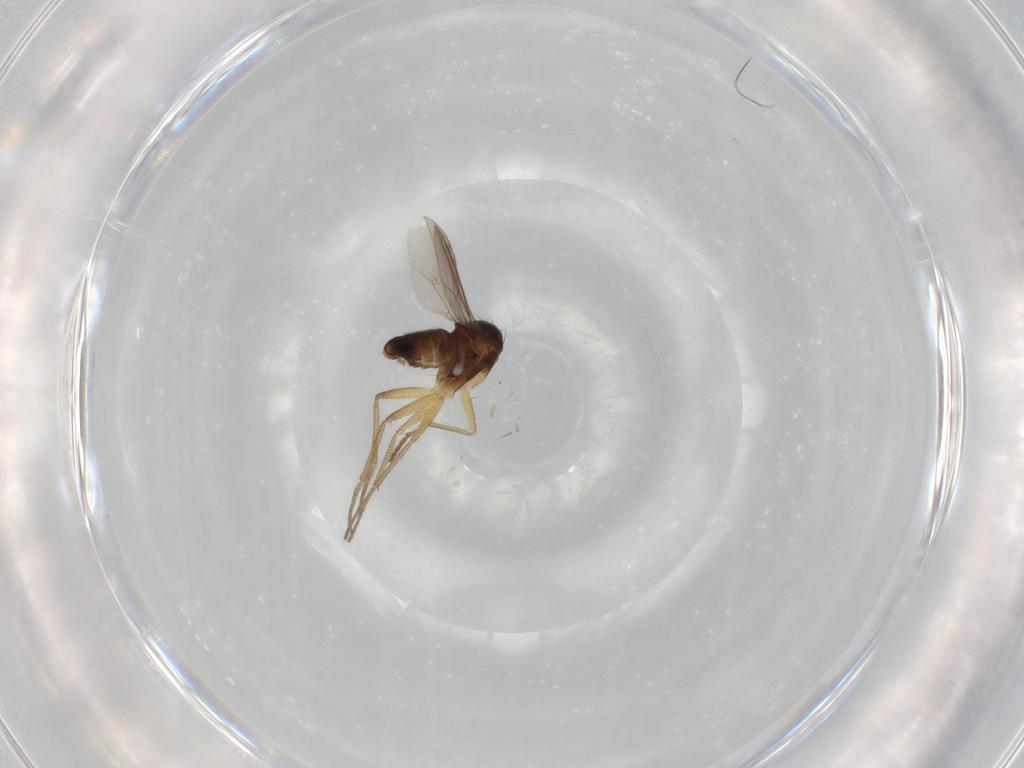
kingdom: Animalia
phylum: Arthropoda
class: Insecta
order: Diptera
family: Dolichopodidae
